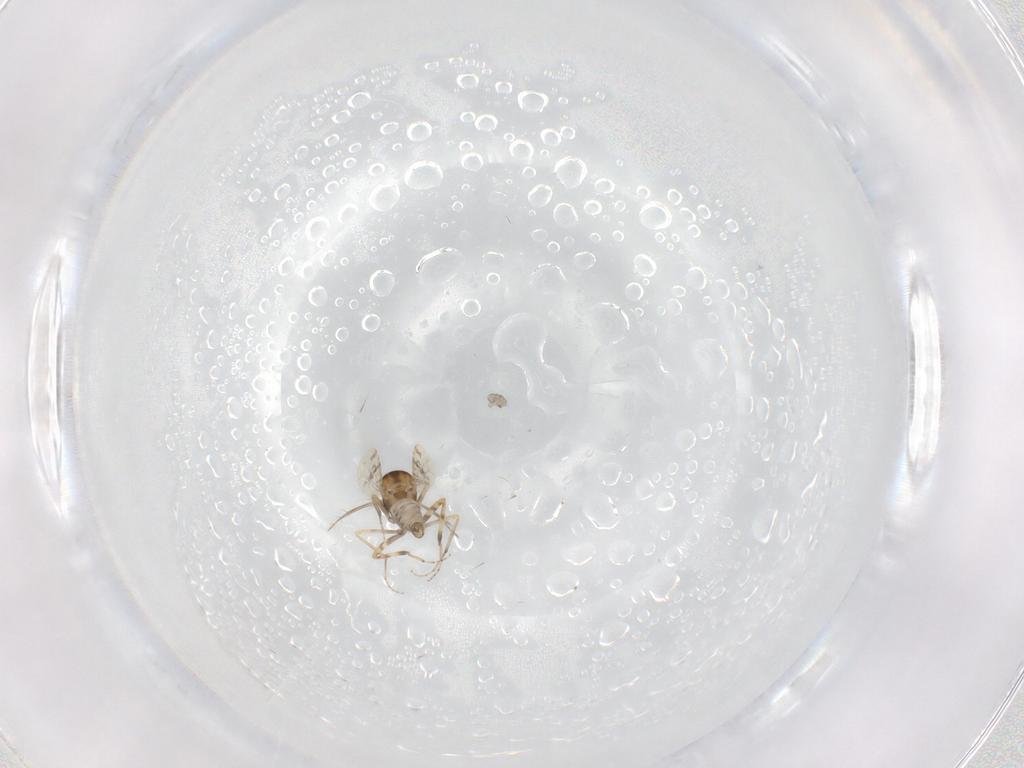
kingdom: Animalia
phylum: Arthropoda
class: Insecta
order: Diptera
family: Ceratopogonidae
